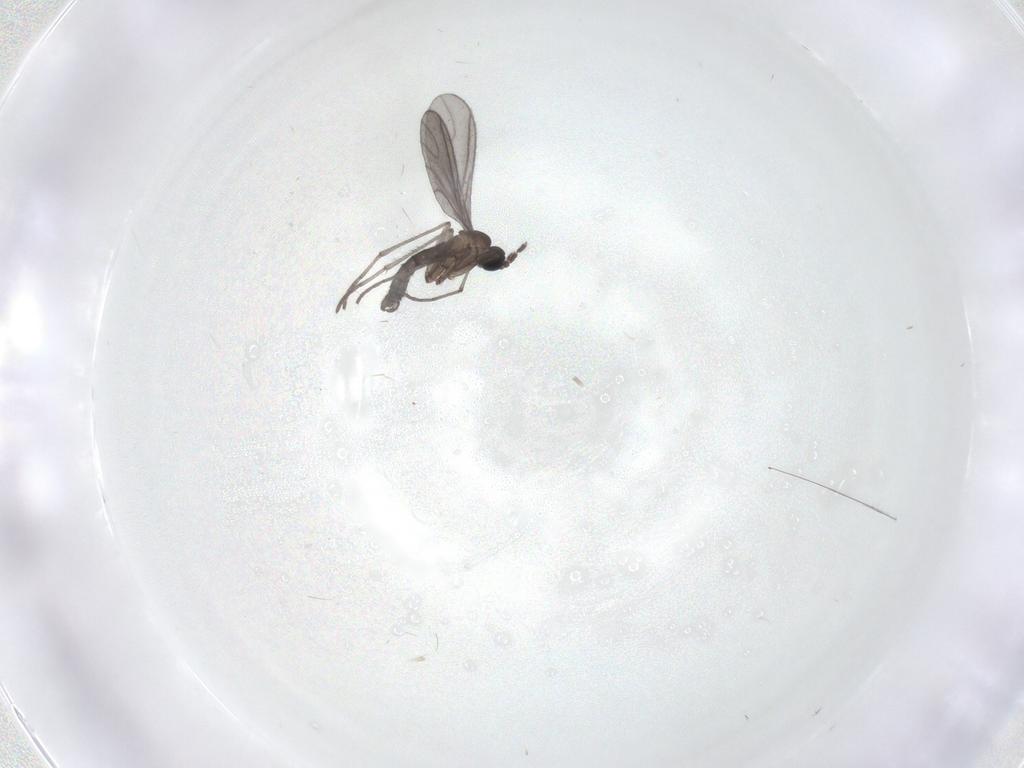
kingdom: Animalia
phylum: Arthropoda
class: Insecta
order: Diptera
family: Sciaridae
